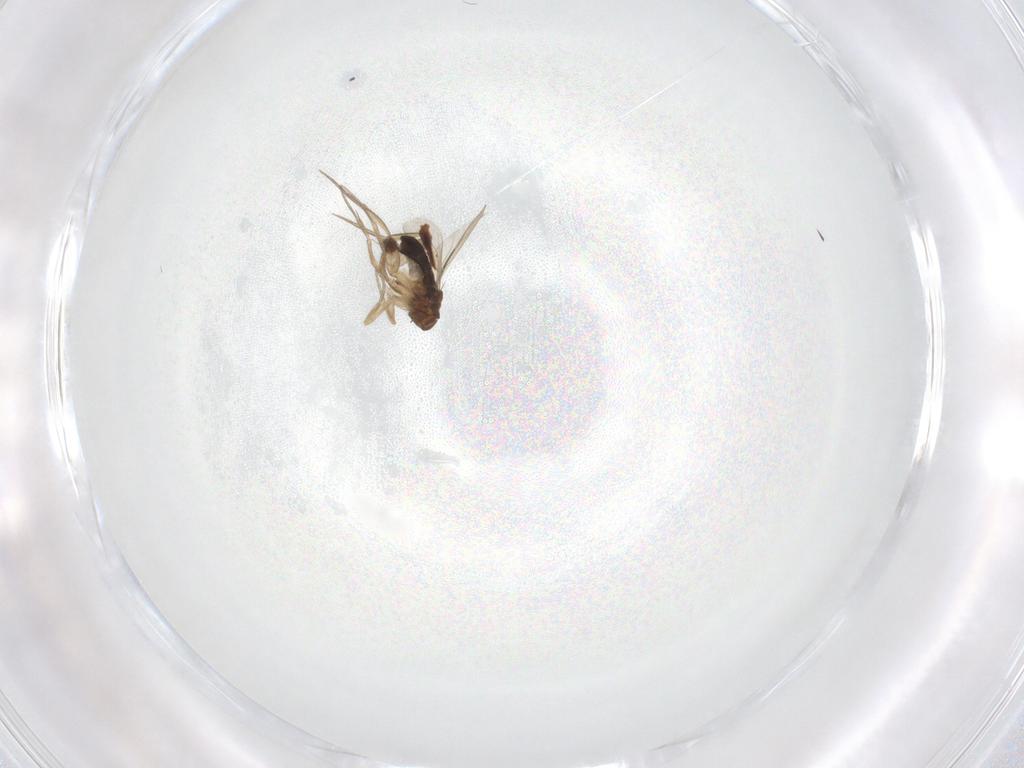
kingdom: Animalia
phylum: Arthropoda
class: Insecta
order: Diptera
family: Phoridae
